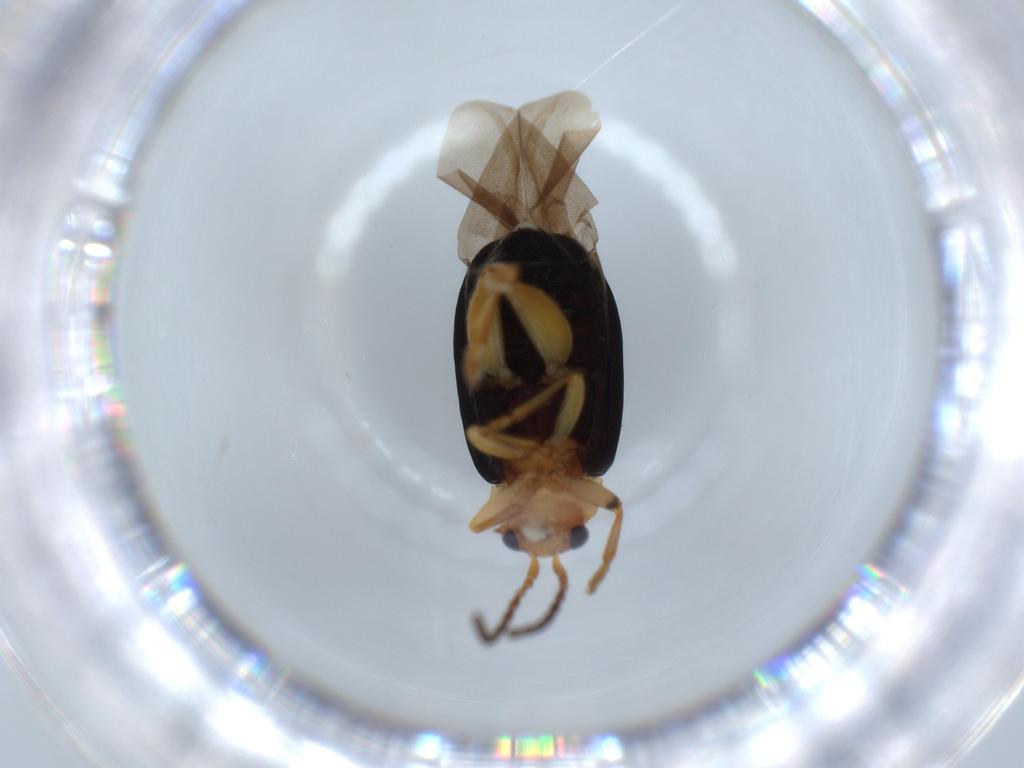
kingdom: Animalia
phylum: Arthropoda
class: Insecta
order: Coleoptera
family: Chrysomelidae
